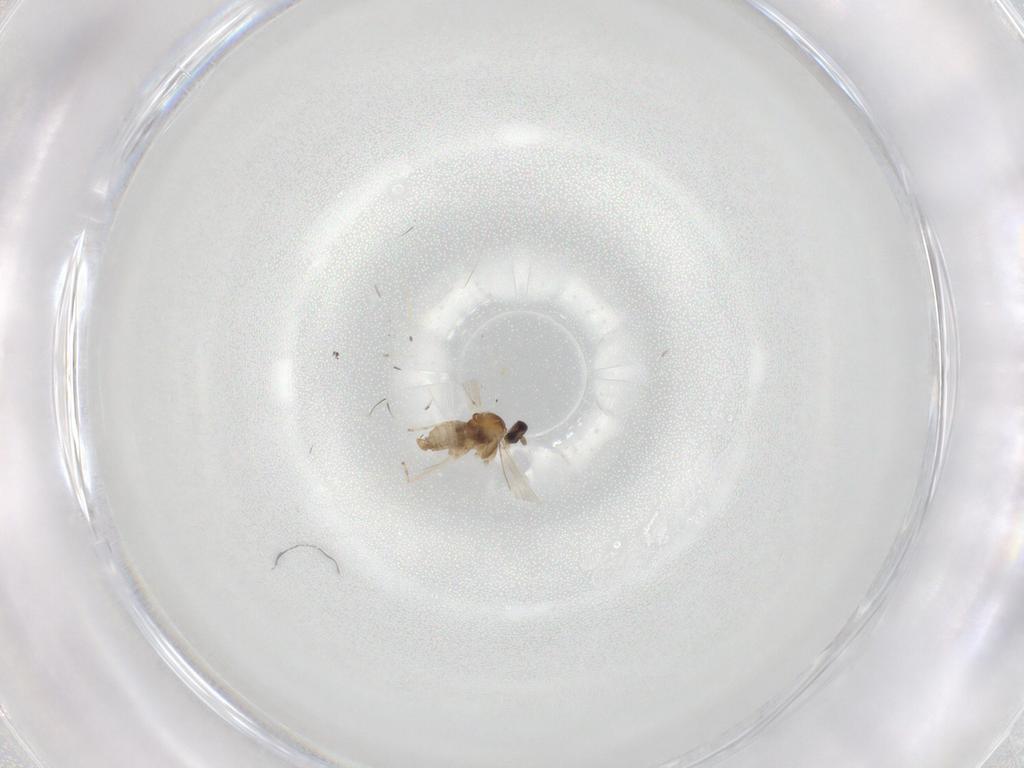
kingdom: Animalia
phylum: Arthropoda
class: Insecta
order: Diptera
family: Cecidomyiidae
